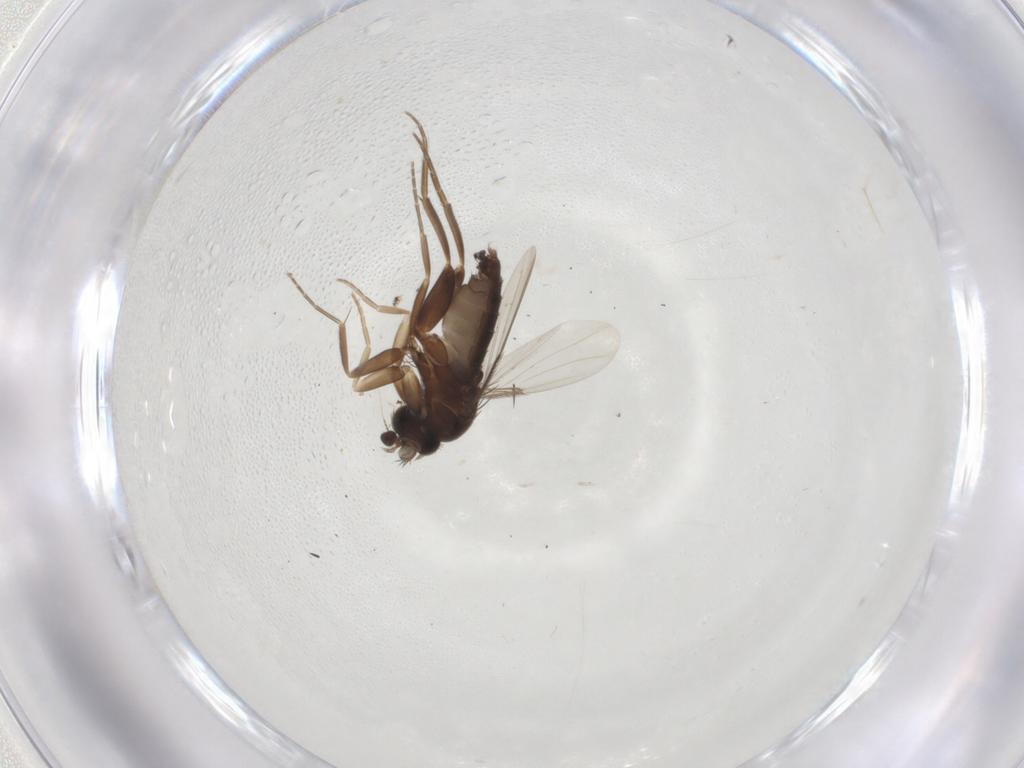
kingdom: Animalia
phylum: Arthropoda
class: Insecta
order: Diptera
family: Phoridae
